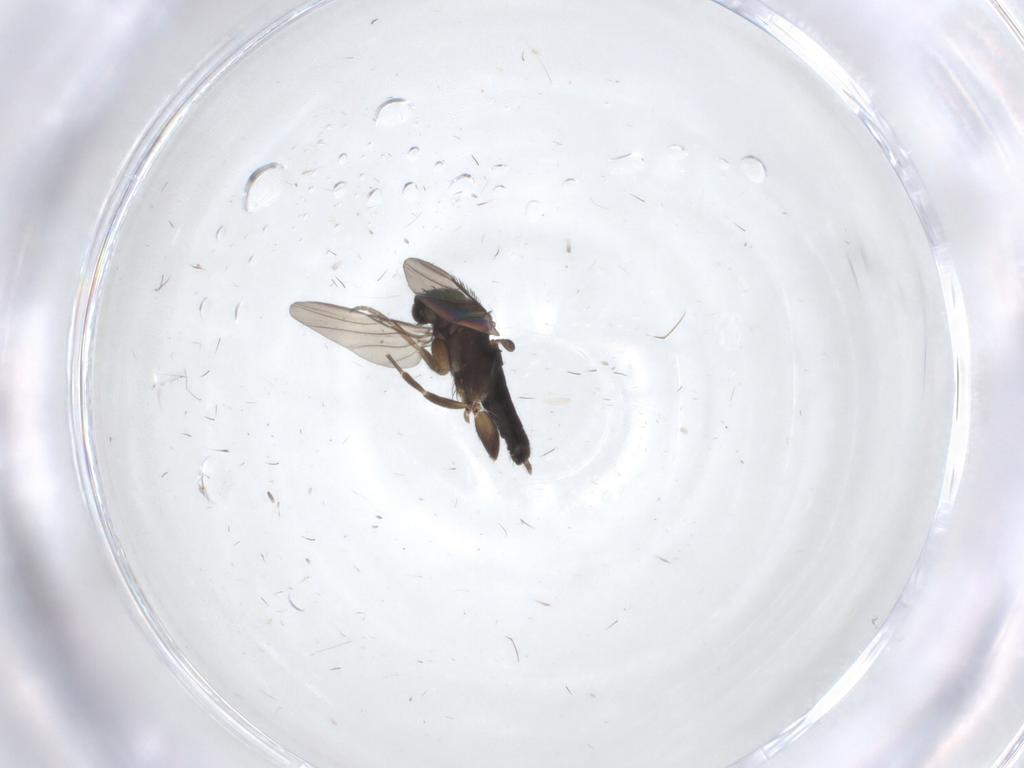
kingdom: Animalia
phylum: Arthropoda
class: Insecta
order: Diptera
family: Phoridae
